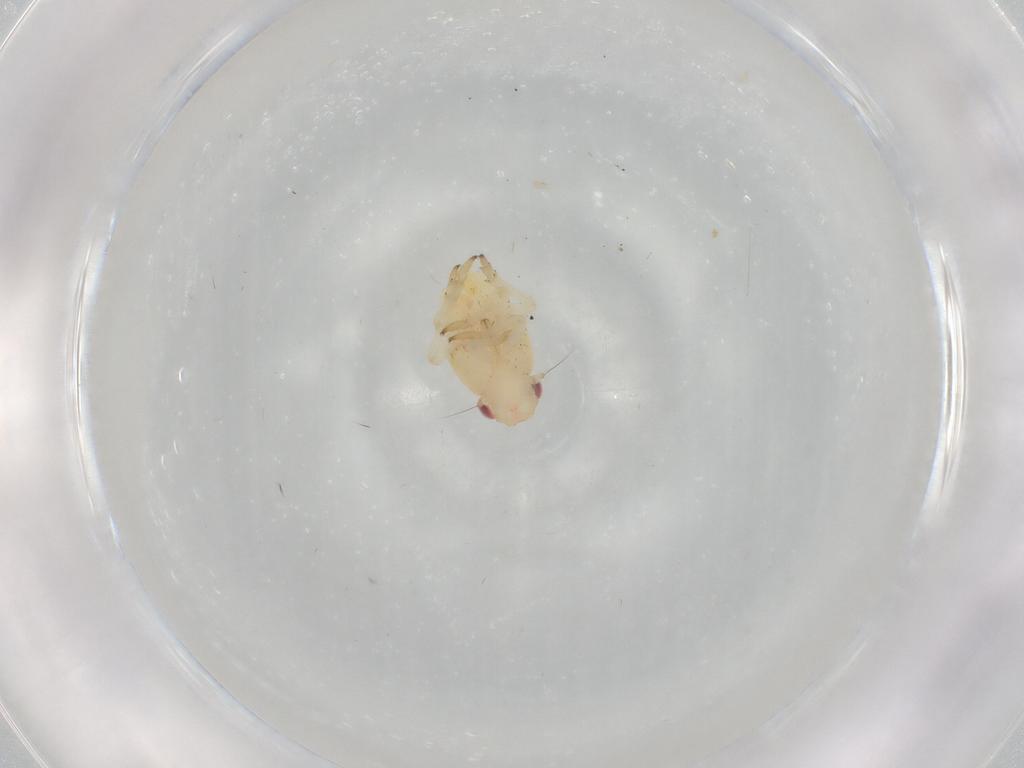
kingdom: Animalia
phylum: Arthropoda
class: Insecta
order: Hemiptera
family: Caliscelidae
